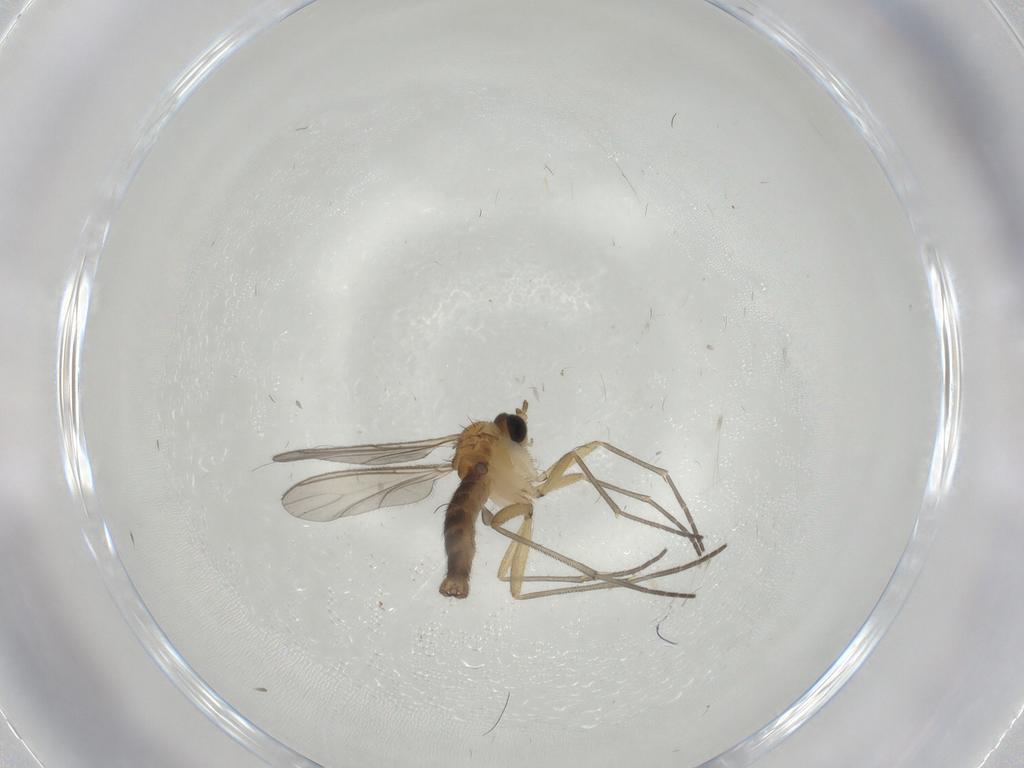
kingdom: Animalia
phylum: Arthropoda
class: Insecta
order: Diptera
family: Sciaridae
